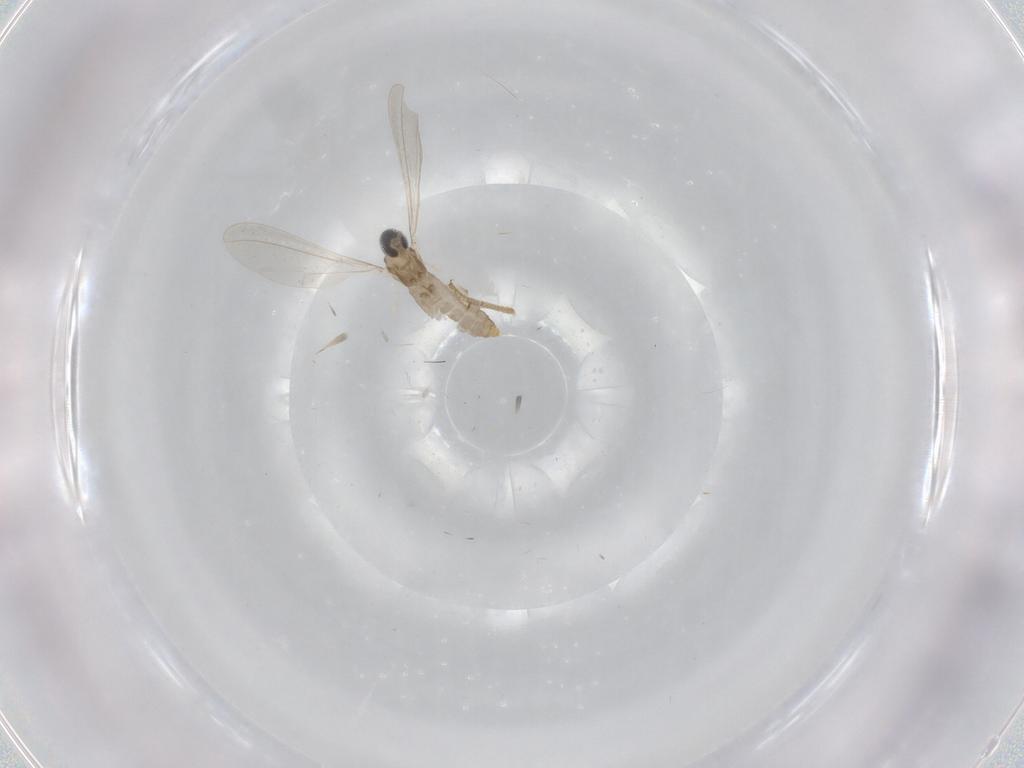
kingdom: Animalia
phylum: Arthropoda
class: Insecta
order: Diptera
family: Cecidomyiidae
